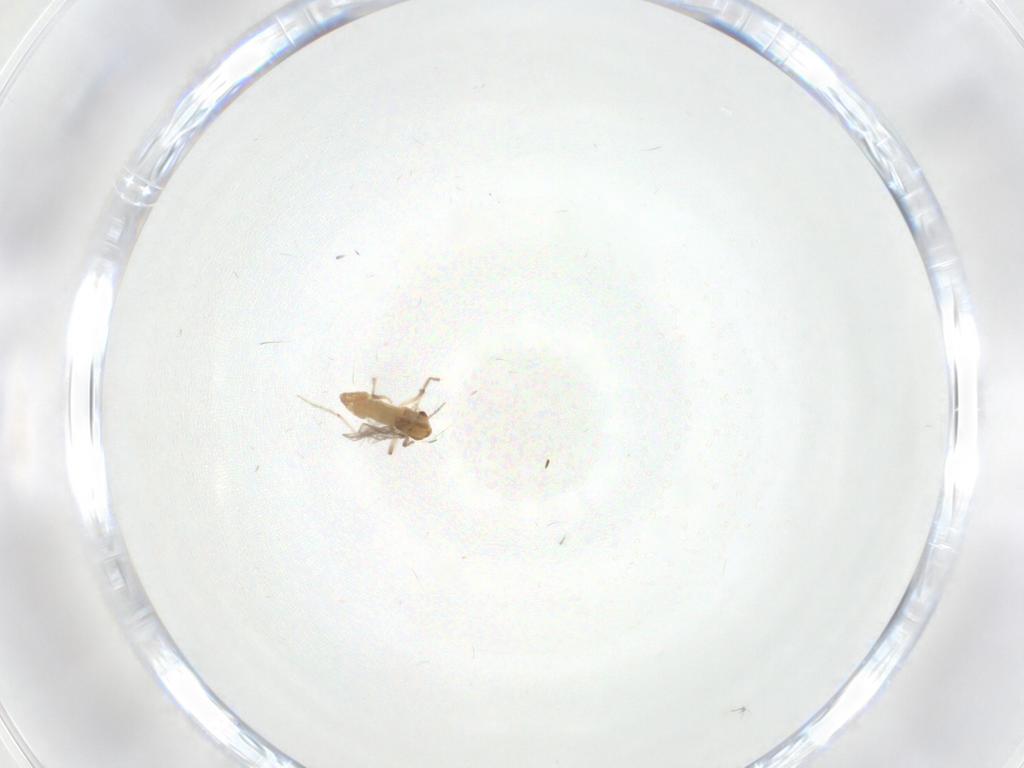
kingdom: Animalia
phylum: Arthropoda
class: Insecta
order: Diptera
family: Chironomidae
